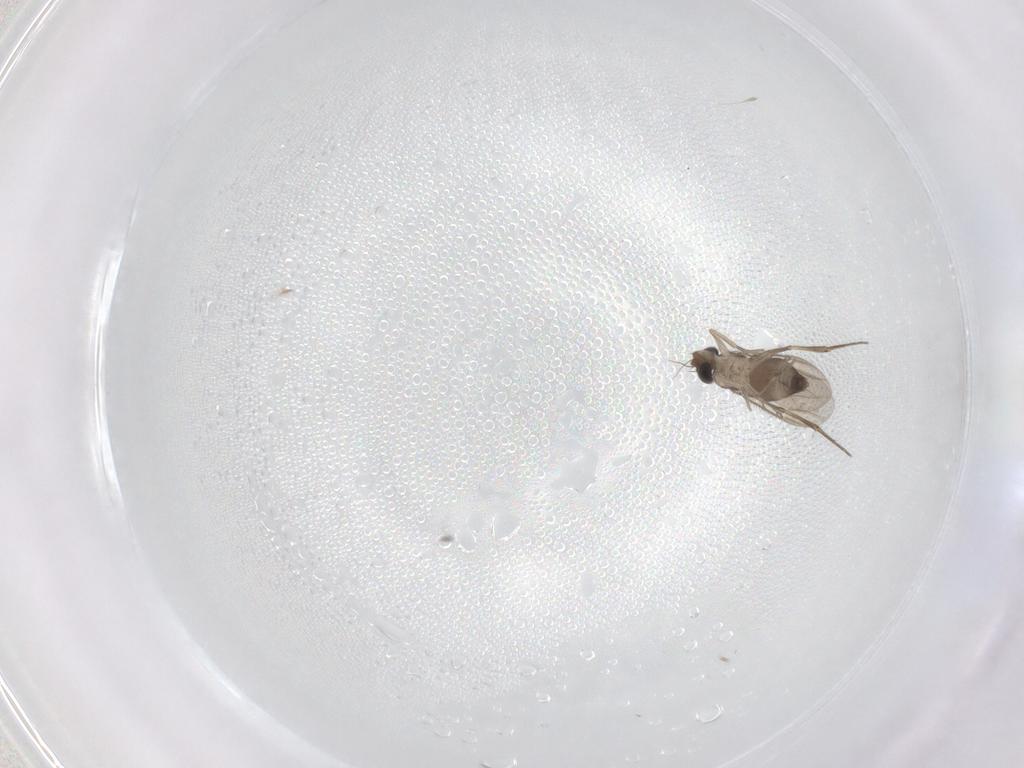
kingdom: Animalia
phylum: Arthropoda
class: Insecta
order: Diptera
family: Phoridae
